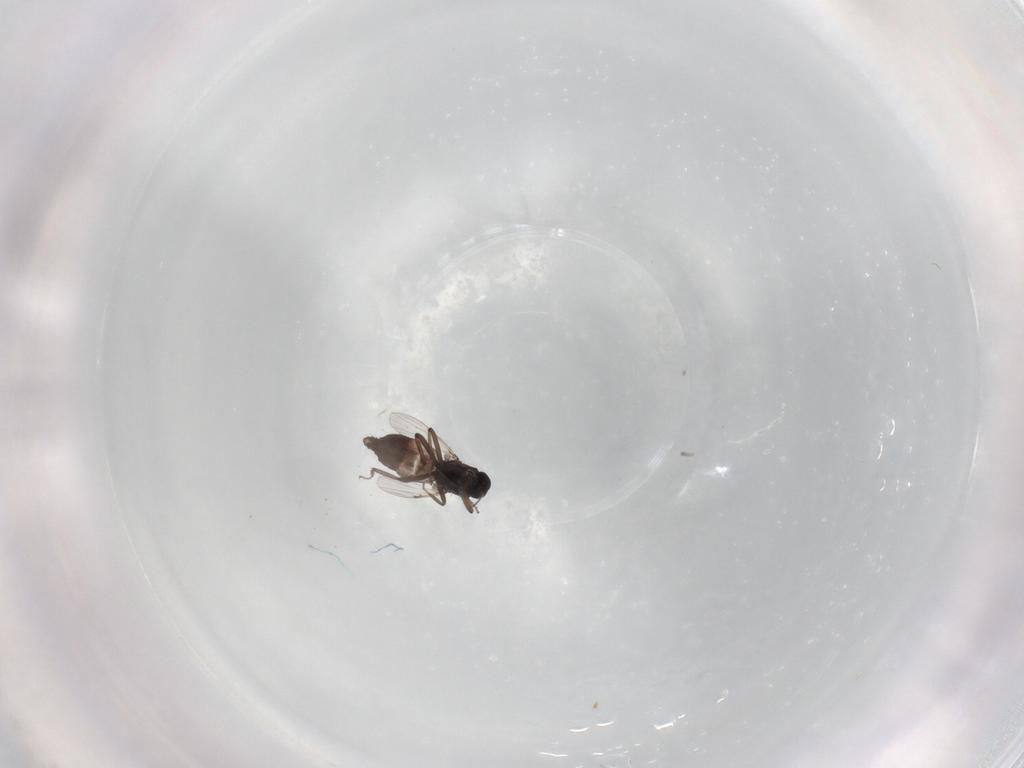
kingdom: Animalia
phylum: Arthropoda
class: Insecta
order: Diptera
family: Ceratopogonidae
